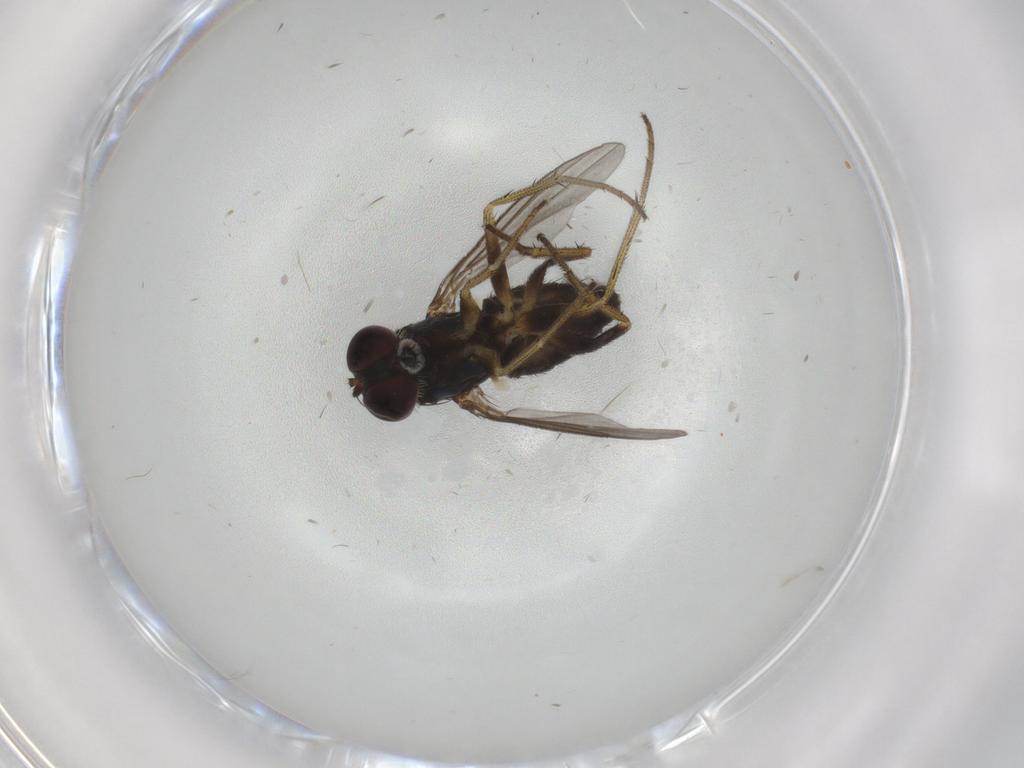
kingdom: Animalia
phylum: Arthropoda
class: Insecta
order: Diptera
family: Dolichopodidae
